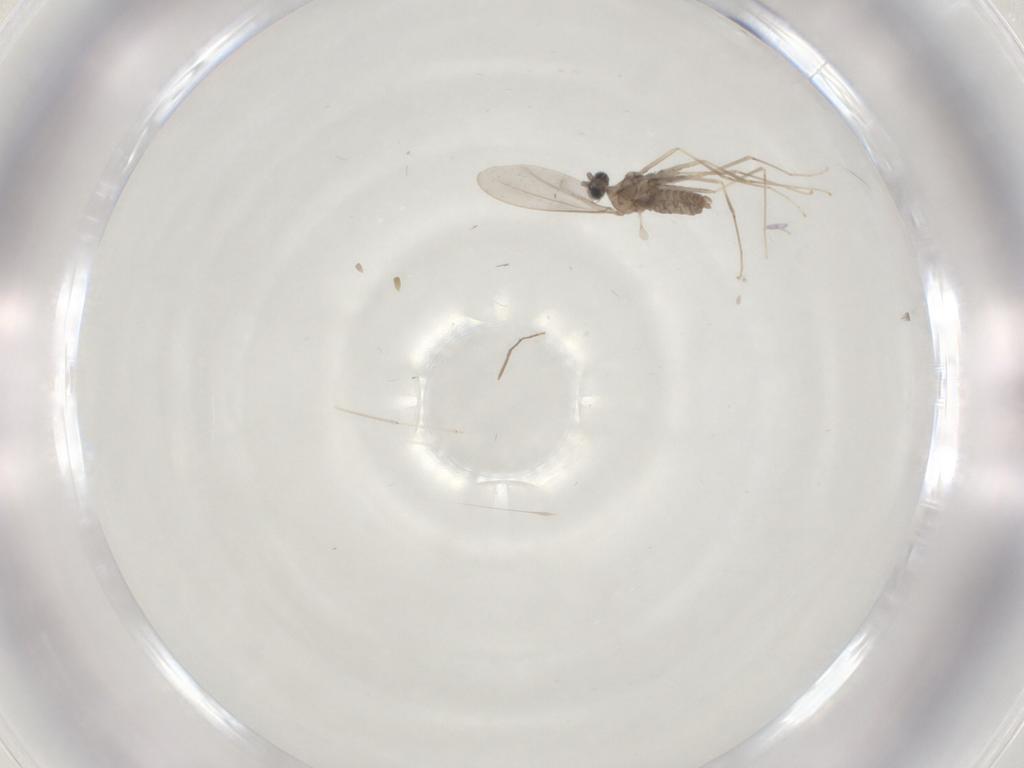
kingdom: Animalia
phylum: Arthropoda
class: Insecta
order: Diptera
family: Cecidomyiidae
